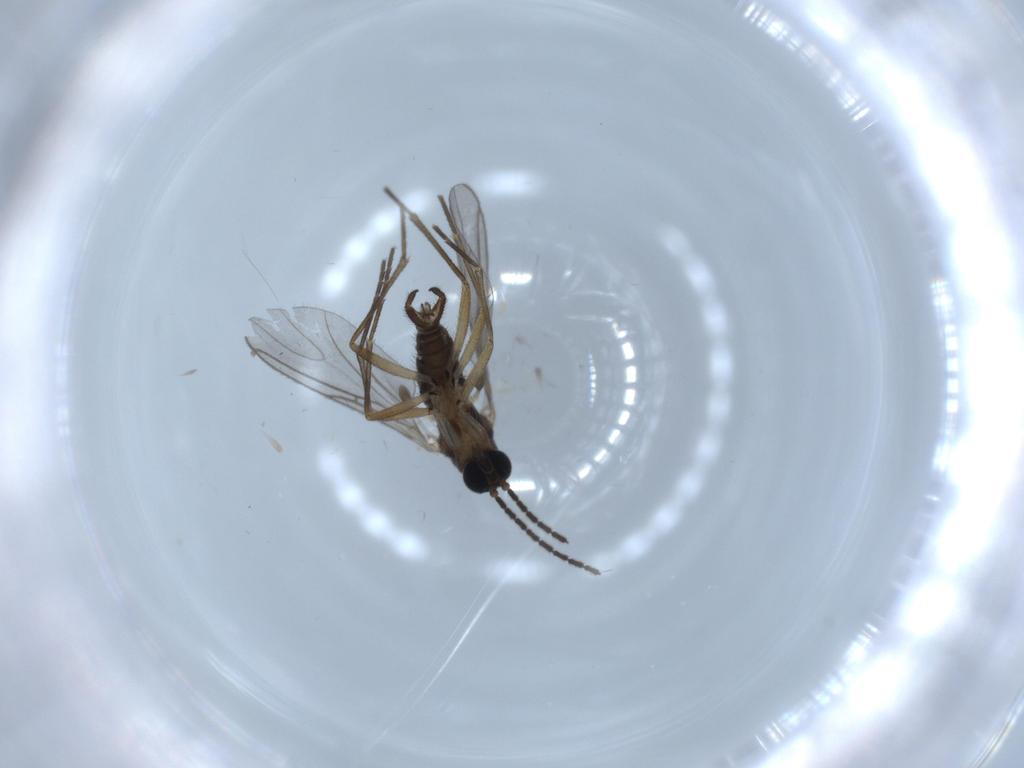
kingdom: Animalia
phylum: Arthropoda
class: Insecta
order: Diptera
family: Sciaridae
